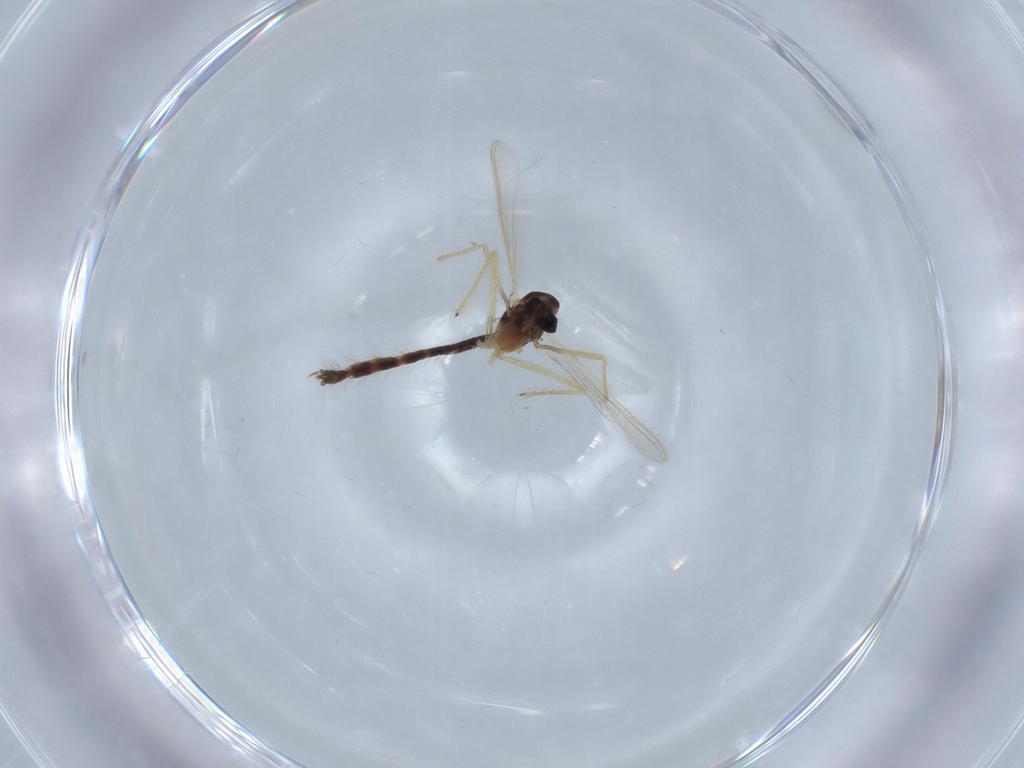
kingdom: Animalia
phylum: Arthropoda
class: Insecta
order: Diptera
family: Chironomidae
